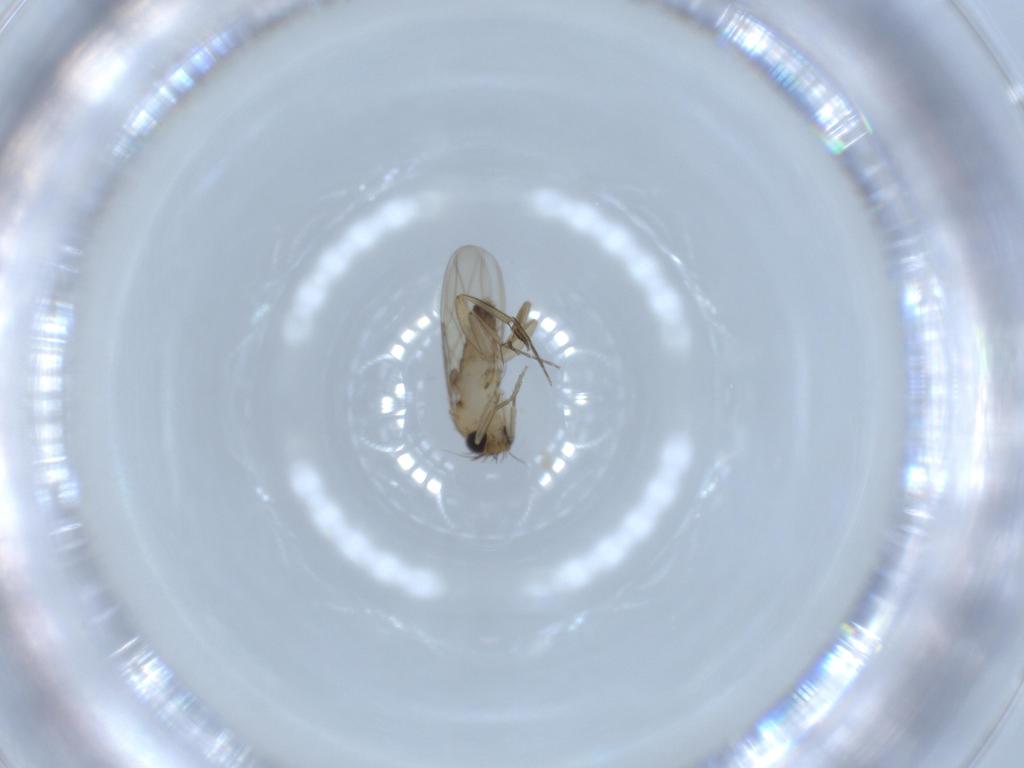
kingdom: Animalia
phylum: Arthropoda
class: Insecta
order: Diptera
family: Phoridae
